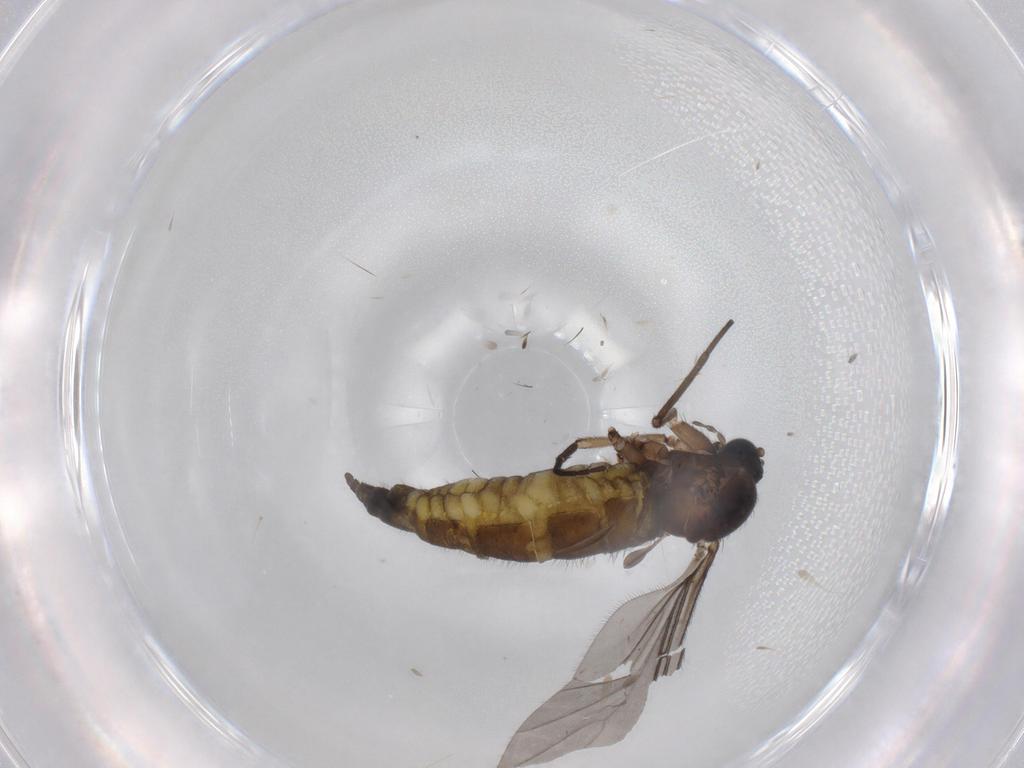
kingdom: Animalia
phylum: Arthropoda
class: Insecta
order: Diptera
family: Sciaridae
